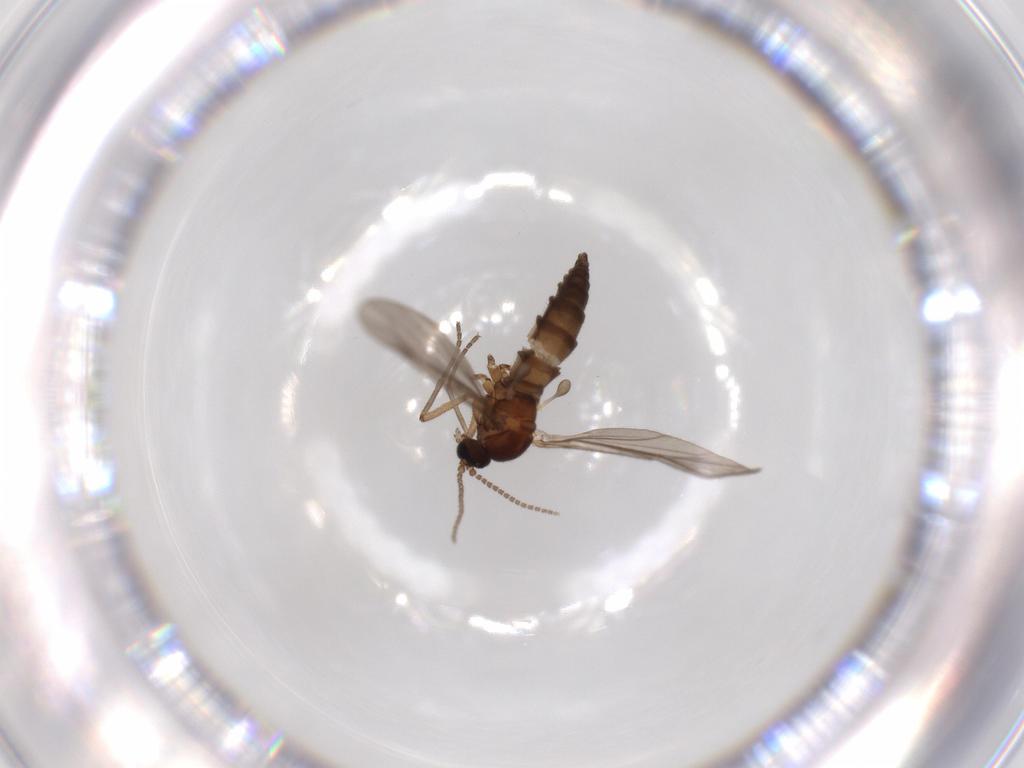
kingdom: Animalia
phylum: Arthropoda
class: Insecta
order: Diptera
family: Sciaridae
